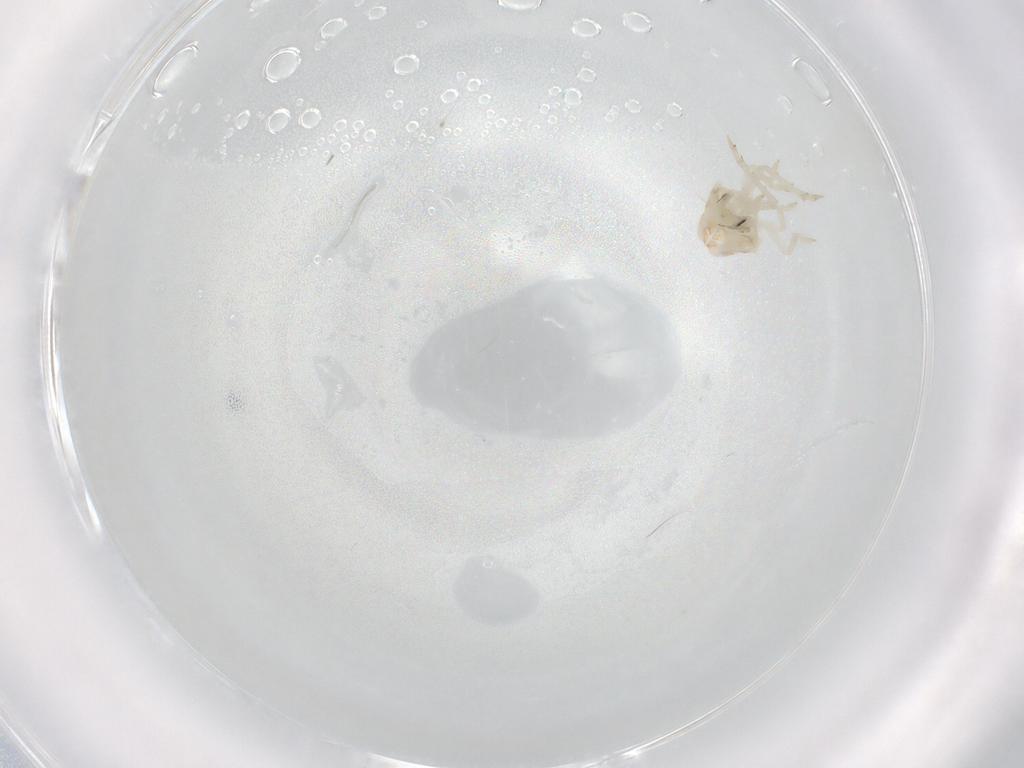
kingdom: Animalia
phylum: Arthropoda
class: Insecta
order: Hemiptera
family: Flatidae
